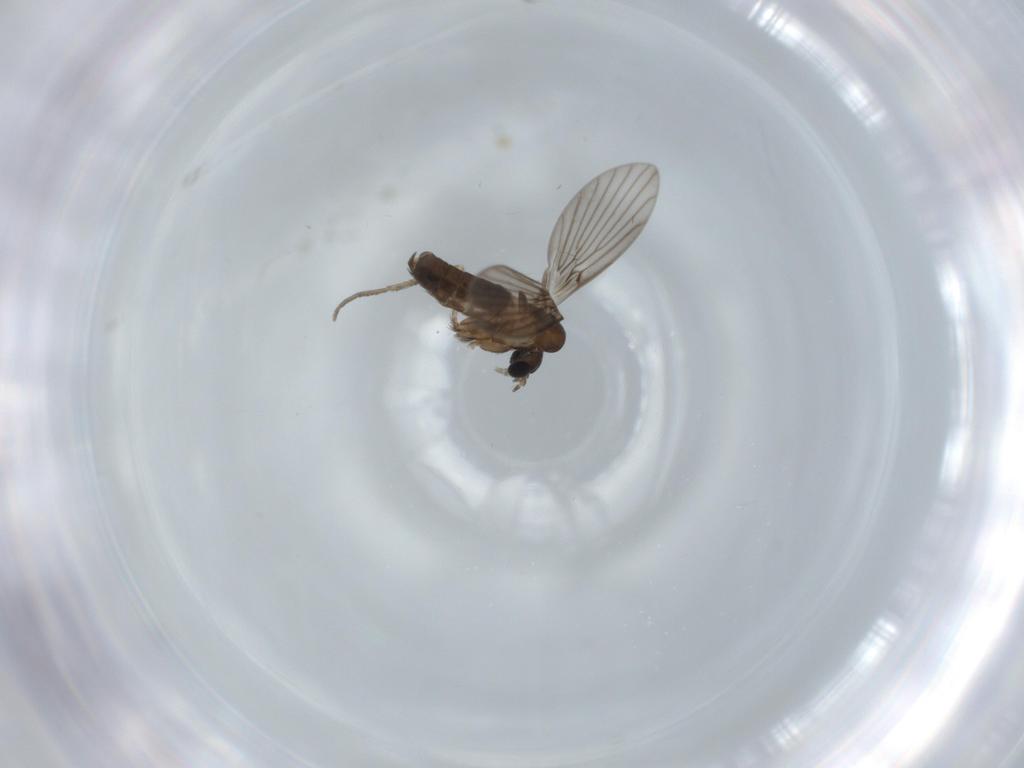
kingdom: Animalia
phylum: Arthropoda
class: Insecta
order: Diptera
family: Psychodidae
